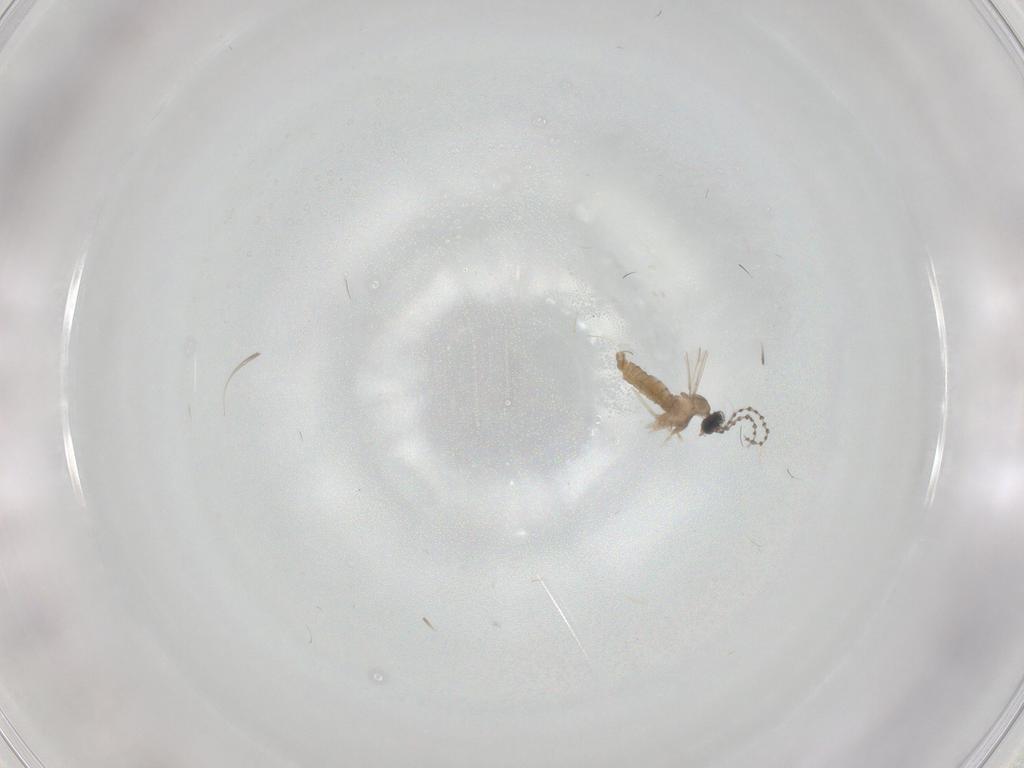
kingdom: Animalia
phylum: Arthropoda
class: Insecta
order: Diptera
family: Cecidomyiidae
